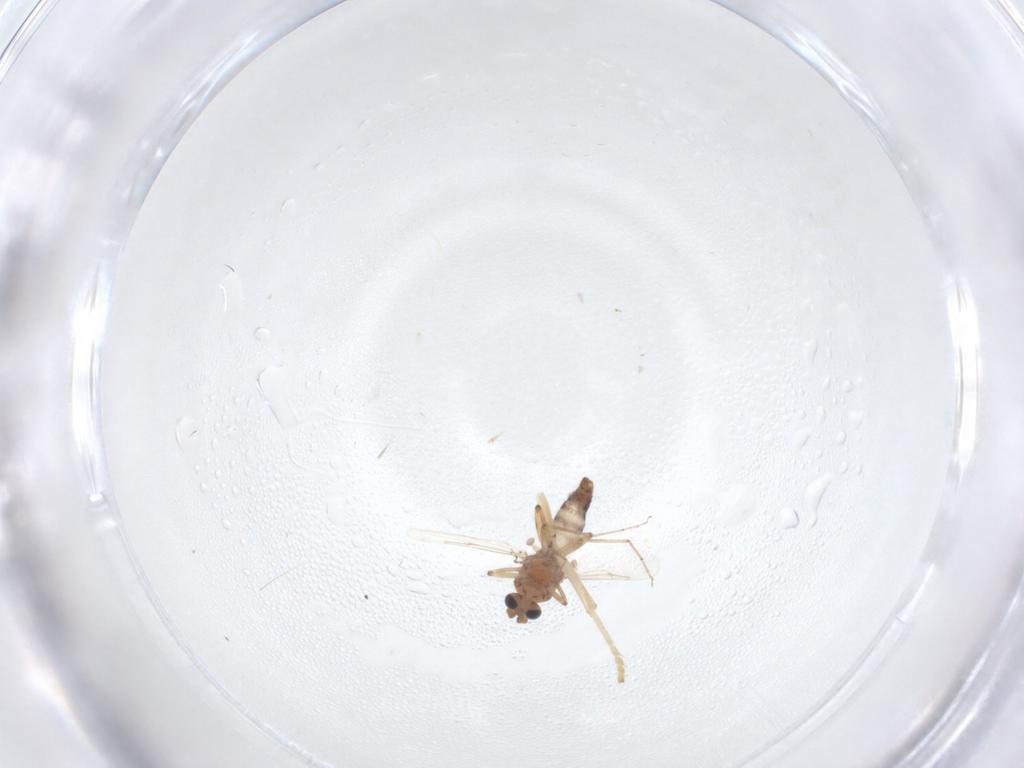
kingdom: Animalia
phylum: Arthropoda
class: Insecta
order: Diptera
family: Ceratopogonidae
